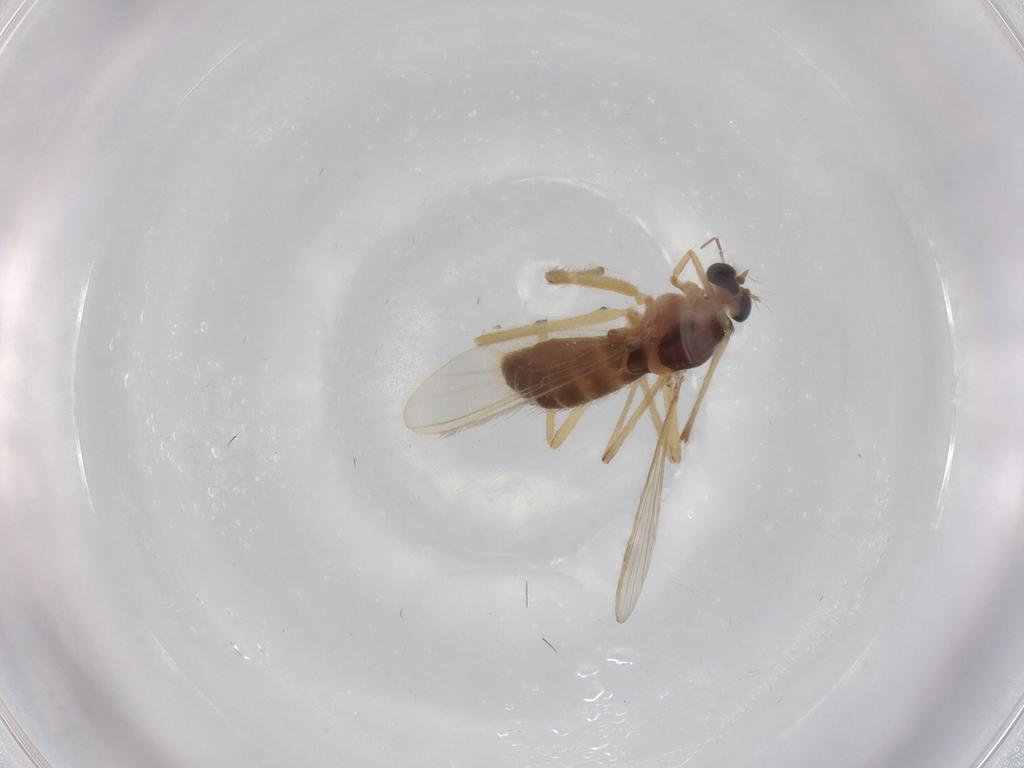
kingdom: Animalia
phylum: Arthropoda
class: Insecta
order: Diptera
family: Chironomidae
